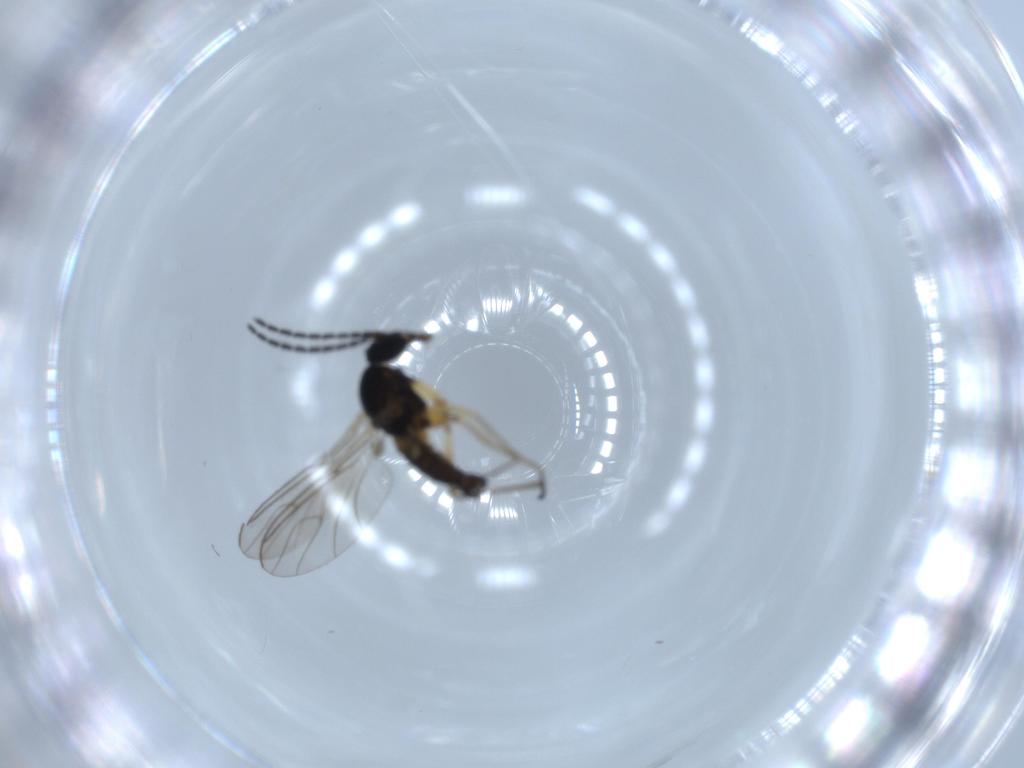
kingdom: Animalia
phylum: Arthropoda
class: Insecta
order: Diptera
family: Sciaridae
